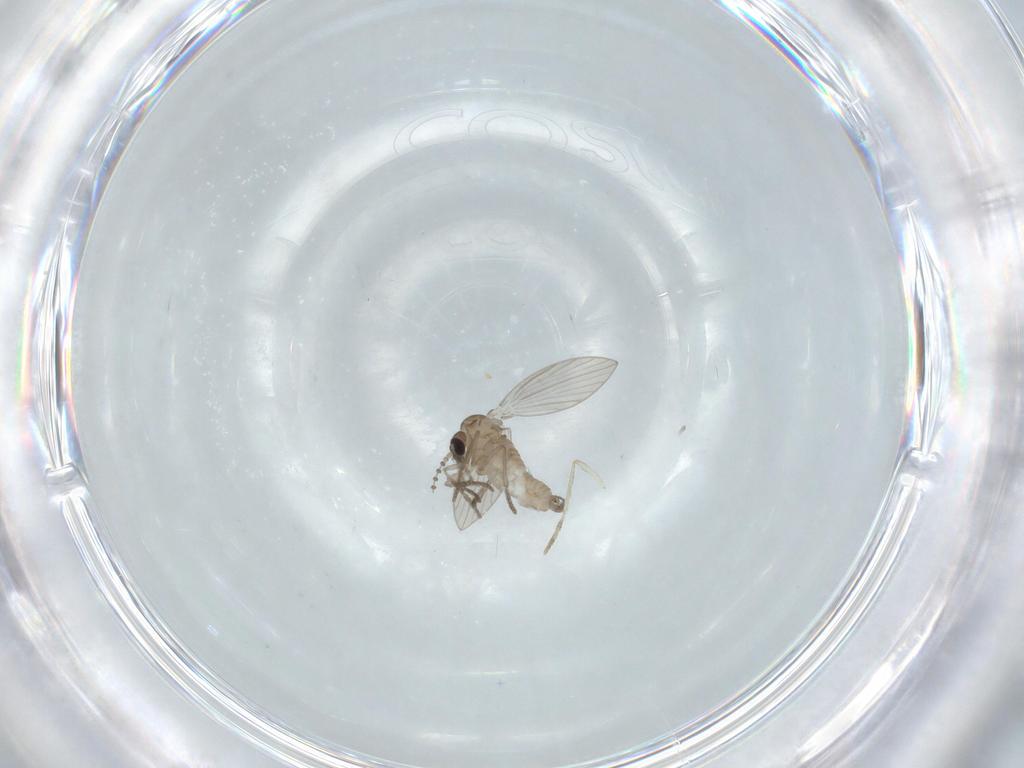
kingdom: Animalia
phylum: Arthropoda
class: Insecta
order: Diptera
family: Psychodidae
